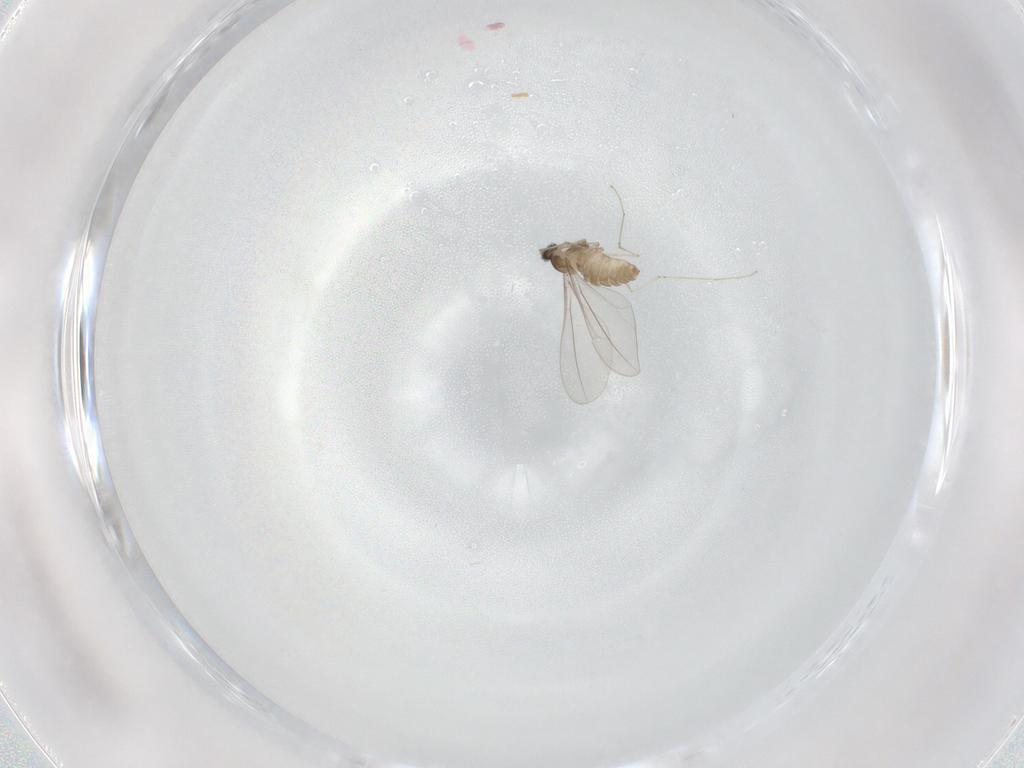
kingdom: Animalia
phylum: Arthropoda
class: Insecta
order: Diptera
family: Cecidomyiidae
